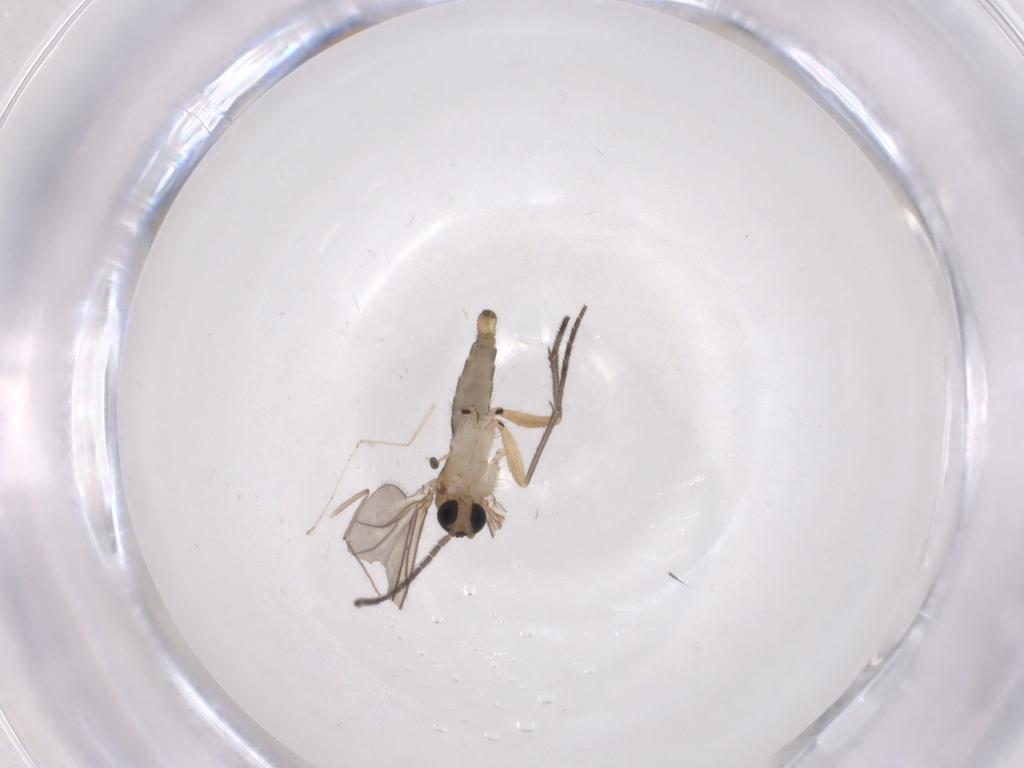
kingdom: Animalia
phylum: Arthropoda
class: Insecta
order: Diptera
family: Sciaridae
